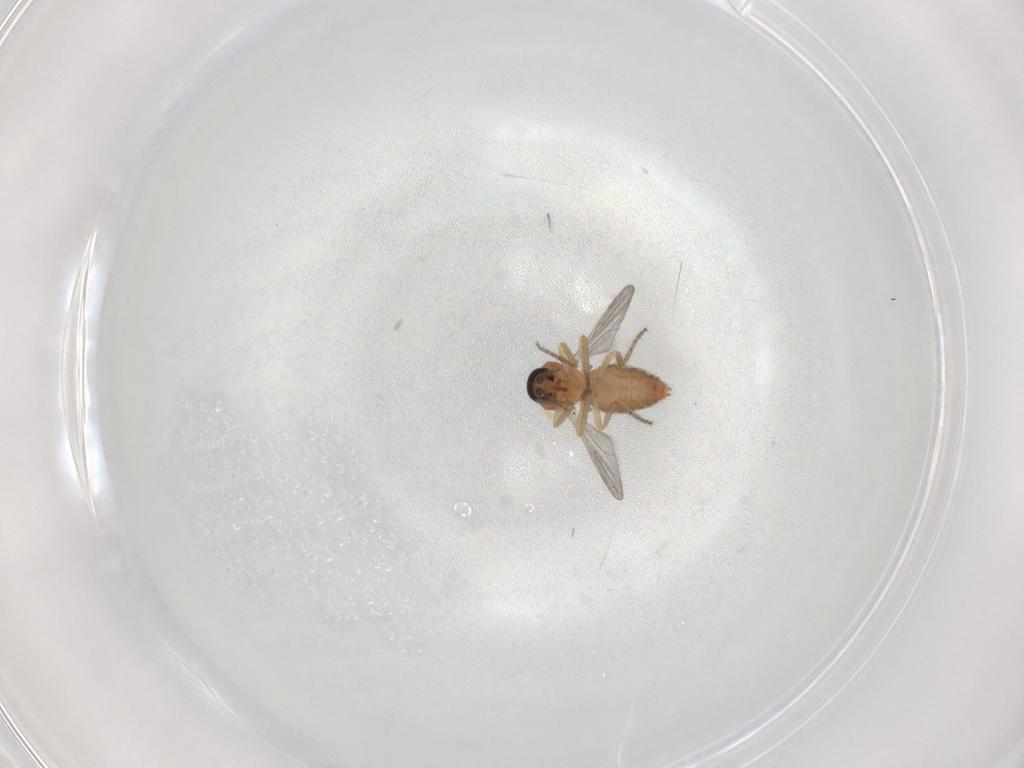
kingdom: Animalia
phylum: Arthropoda
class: Insecta
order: Diptera
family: Ceratopogonidae
